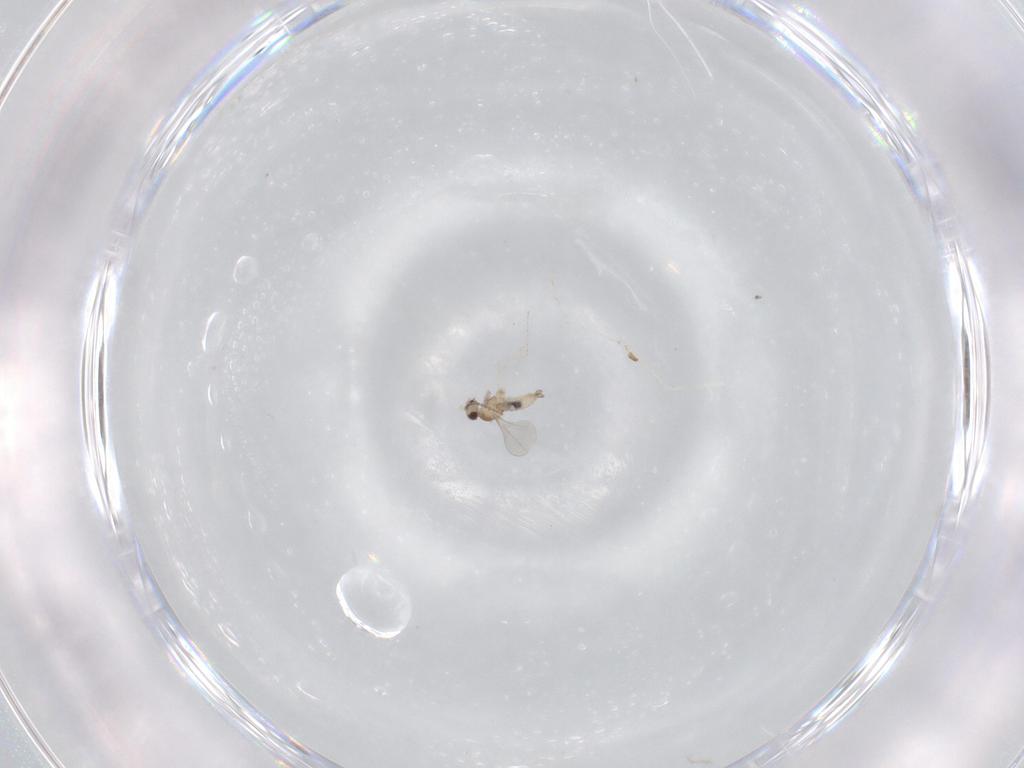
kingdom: Animalia
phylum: Arthropoda
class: Insecta
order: Diptera
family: Cecidomyiidae
